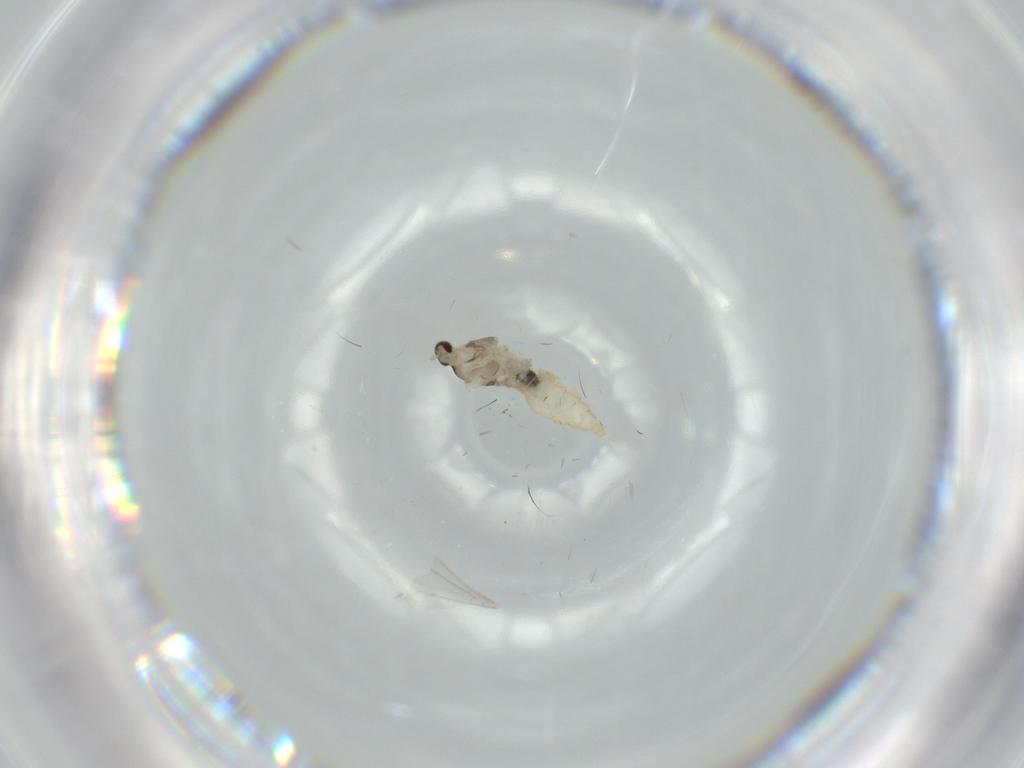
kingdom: Animalia
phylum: Arthropoda
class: Insecta
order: Diptera
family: Cecidomyiidae
